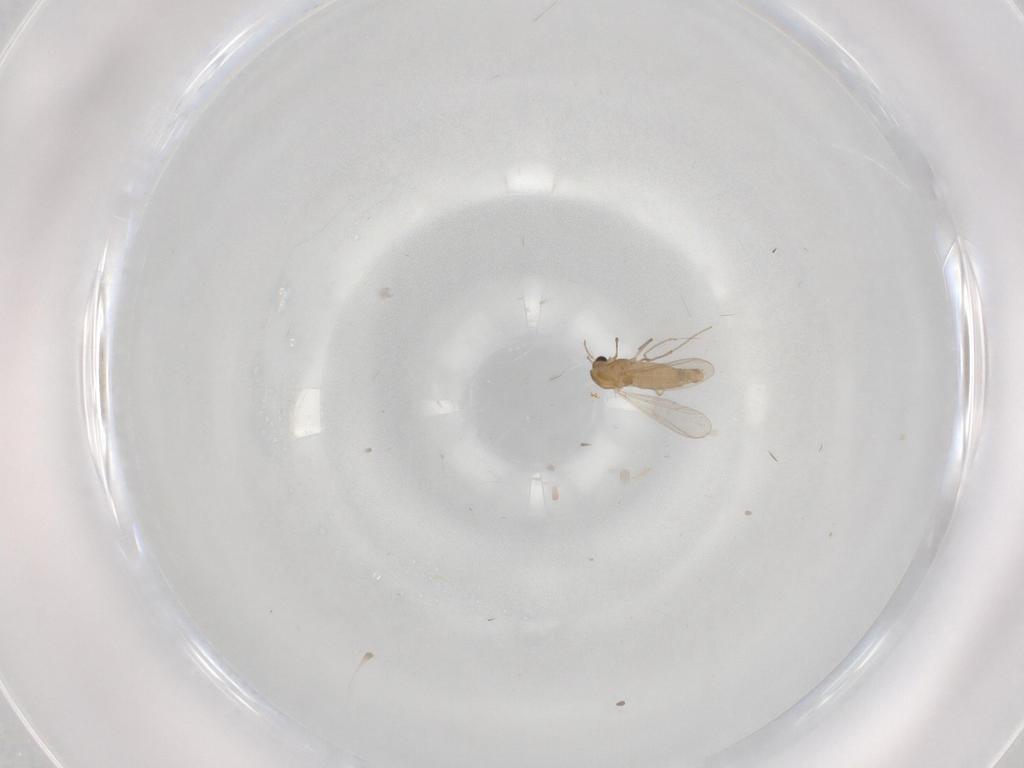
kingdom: Animalia
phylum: Arthropoda
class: Insecta
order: Diptera
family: Chironomidae
